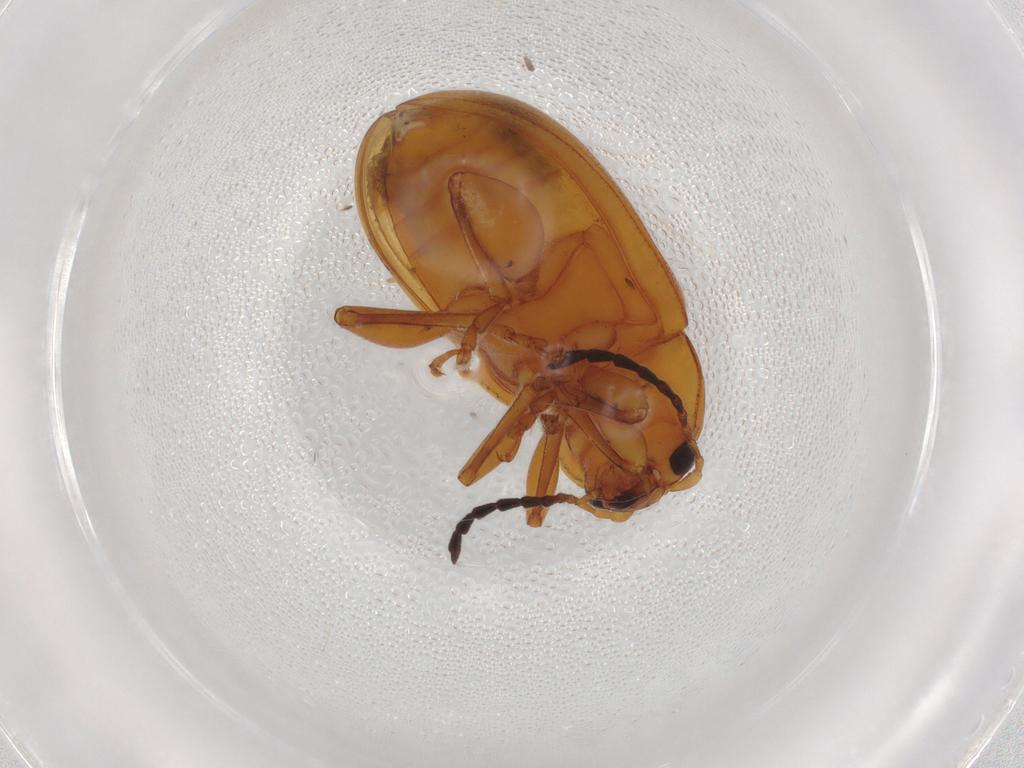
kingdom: Animalia
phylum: Arthropoda
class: Insecta
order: Coleoptera
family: Chrysomelidae
